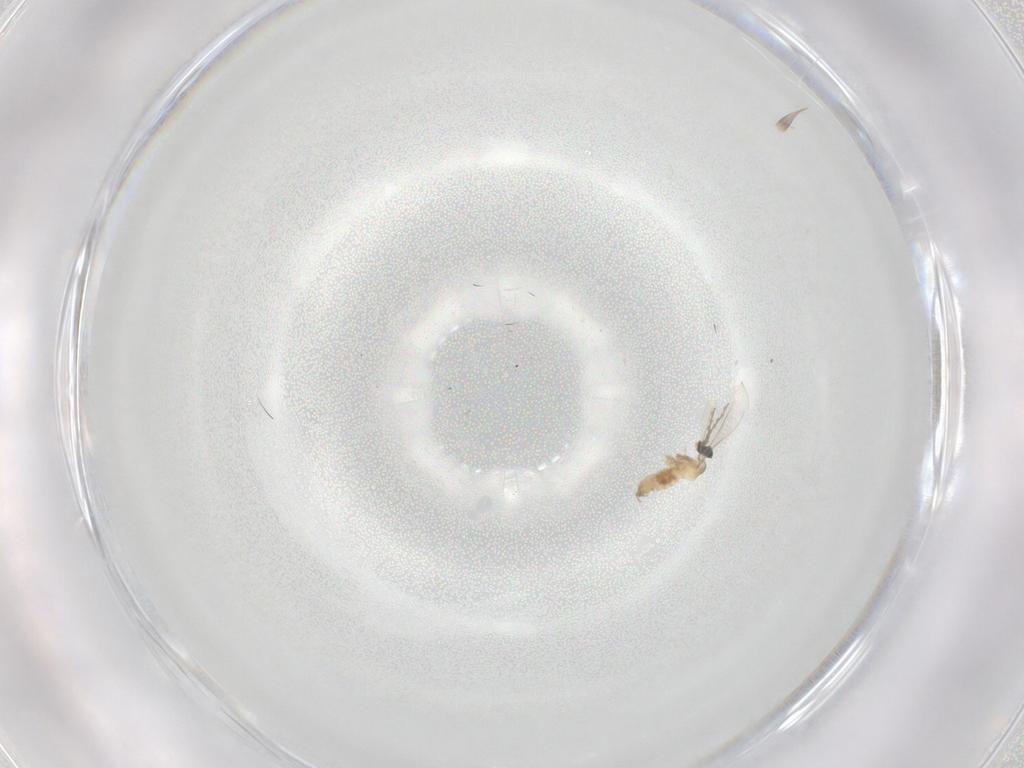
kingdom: Animalia
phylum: Arthropoda
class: Insecta
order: Diptera
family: Cecidomyiidae
